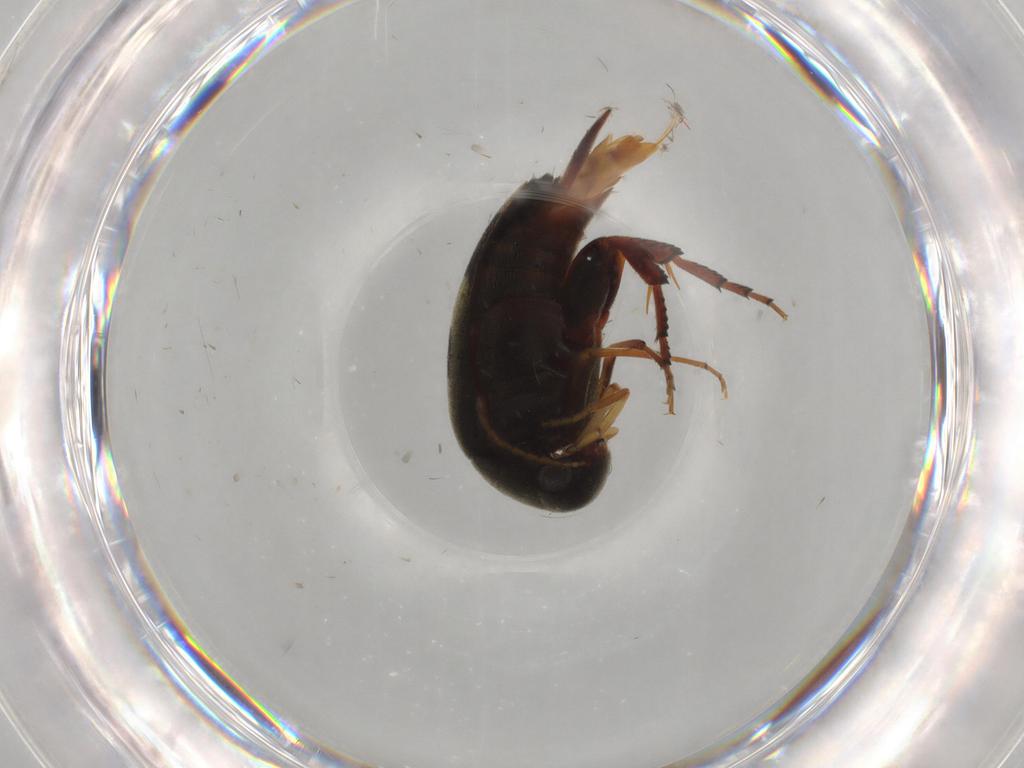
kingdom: Animalia
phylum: Arthropoda
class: Insecta
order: Coleoptera
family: Mordellidae
